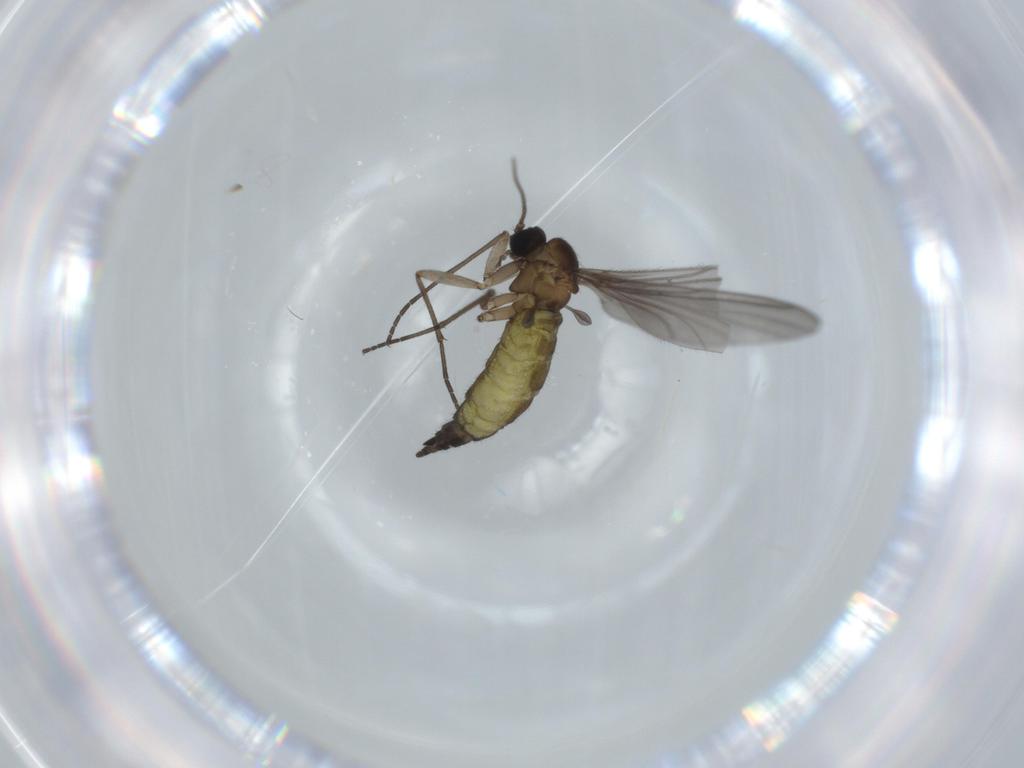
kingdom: Animalia
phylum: Arthropoda
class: Insecta
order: Diptera
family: Sciaridae
